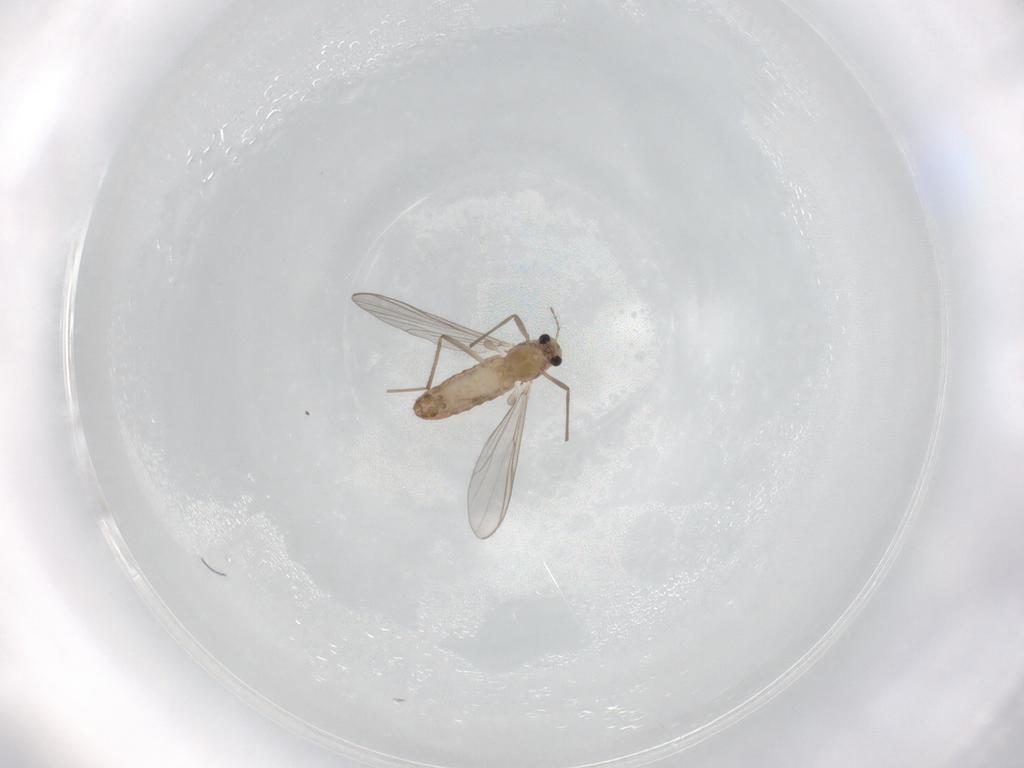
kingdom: Animalia
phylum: Arthropoda
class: Insecta
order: Diptera
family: Chironomidae
